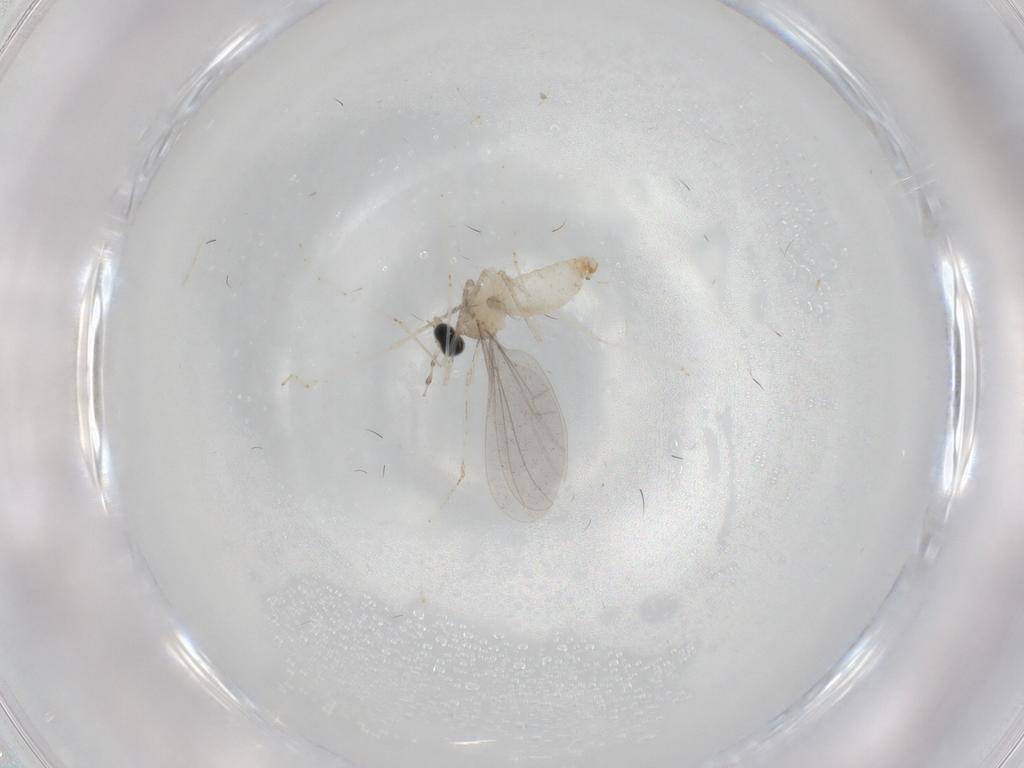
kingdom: Animalia
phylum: Arthropoda
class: Insecta
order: Diptera
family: Cecidomyiidae
